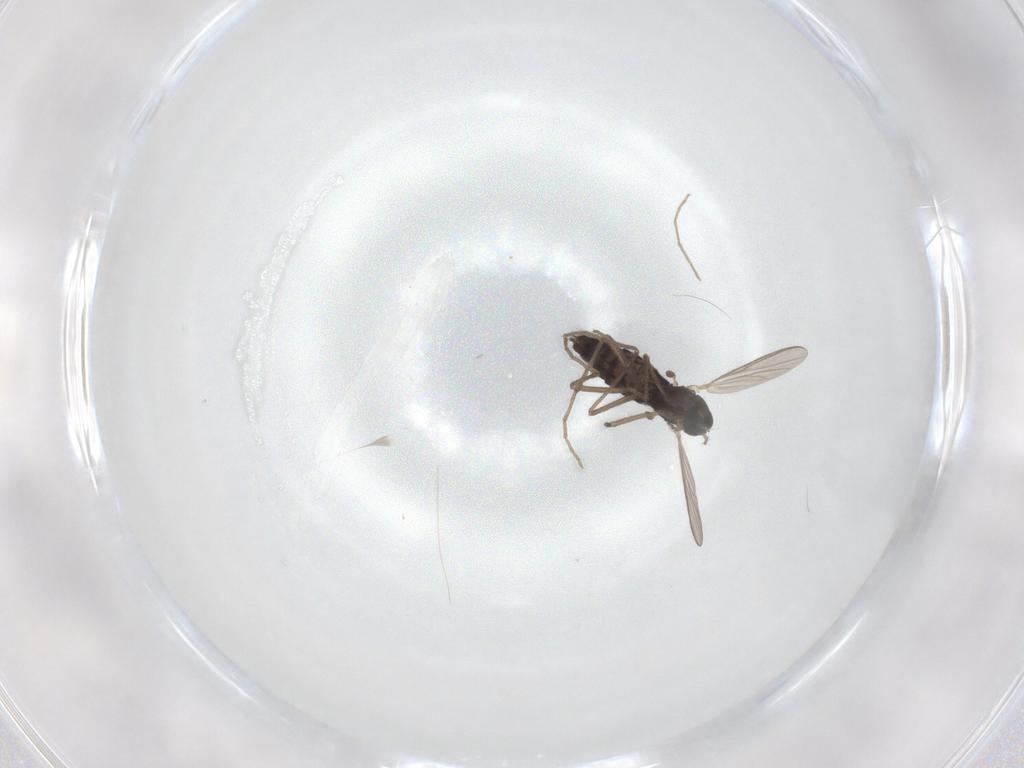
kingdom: Animalia
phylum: Arthropoda
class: Insecta
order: Diptera
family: Chironomidae
